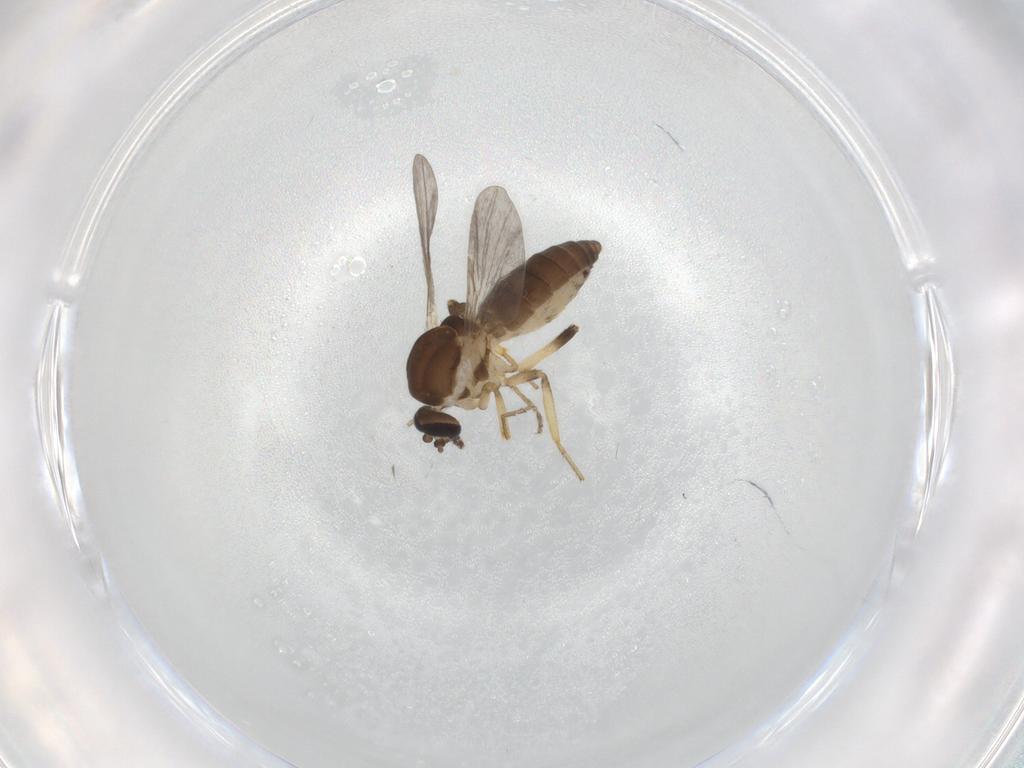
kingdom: Animalia
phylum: Arthropoda
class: Insecta
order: Diptera
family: Ceratopogonidae
